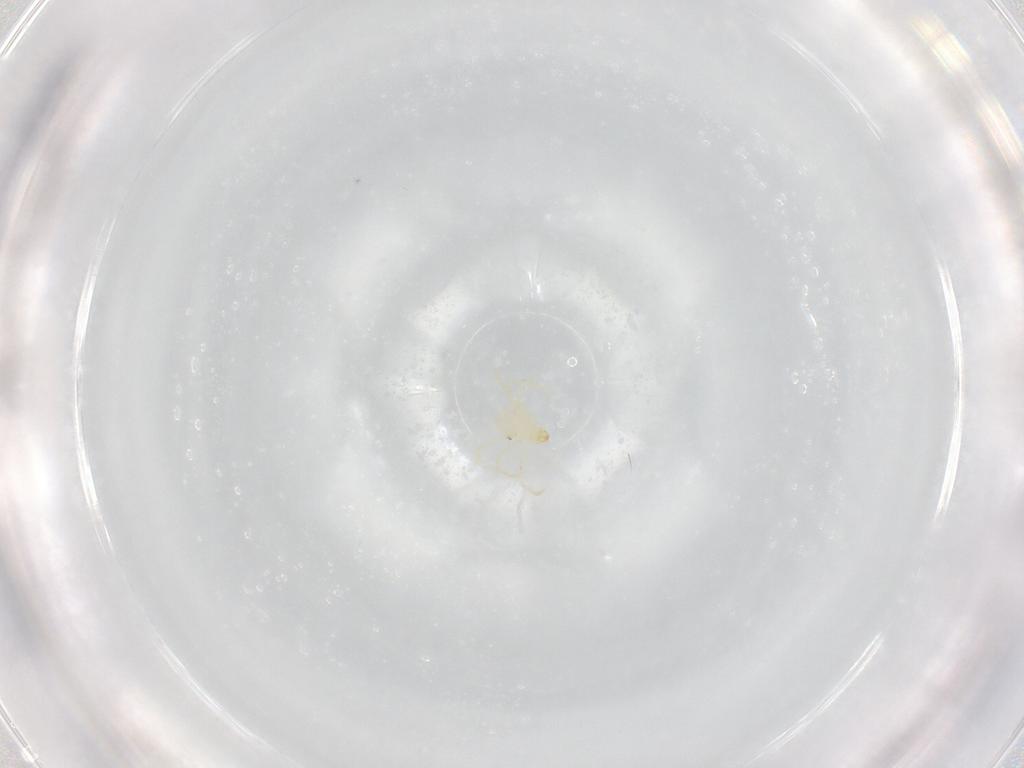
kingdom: Animalia
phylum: Arthropoda
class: Arachnida
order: Trombidiformes
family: Erythraeidae
